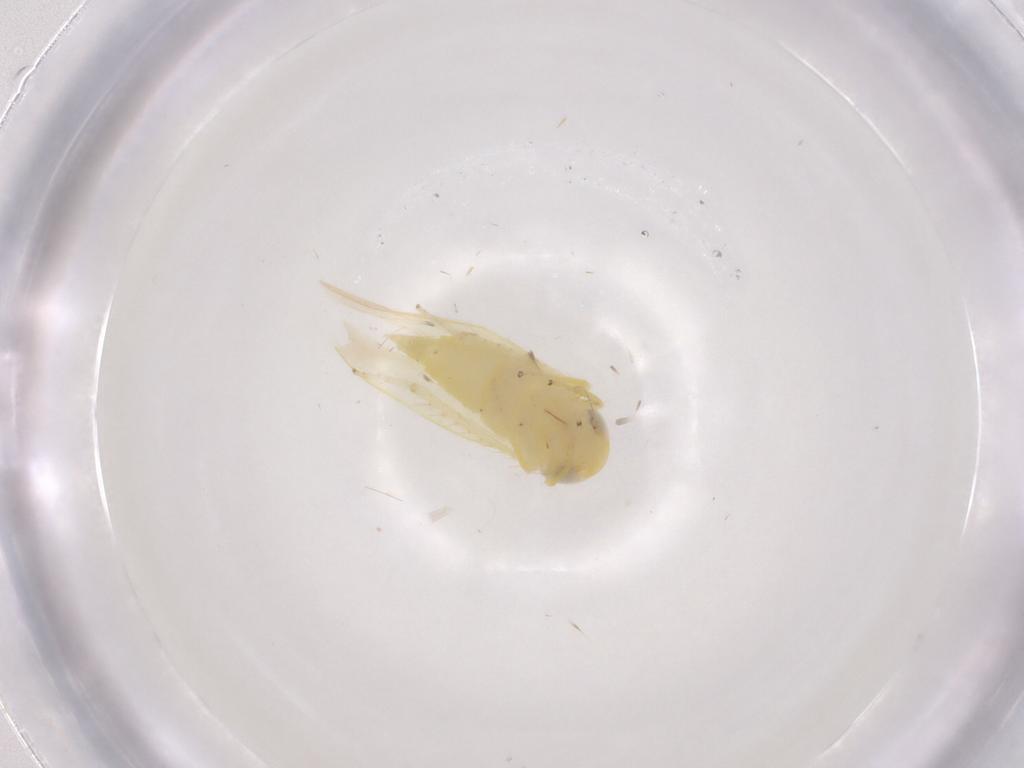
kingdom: Animalia
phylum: Arthropoda
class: Insecta
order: Hemiptera
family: Cicadellidae
